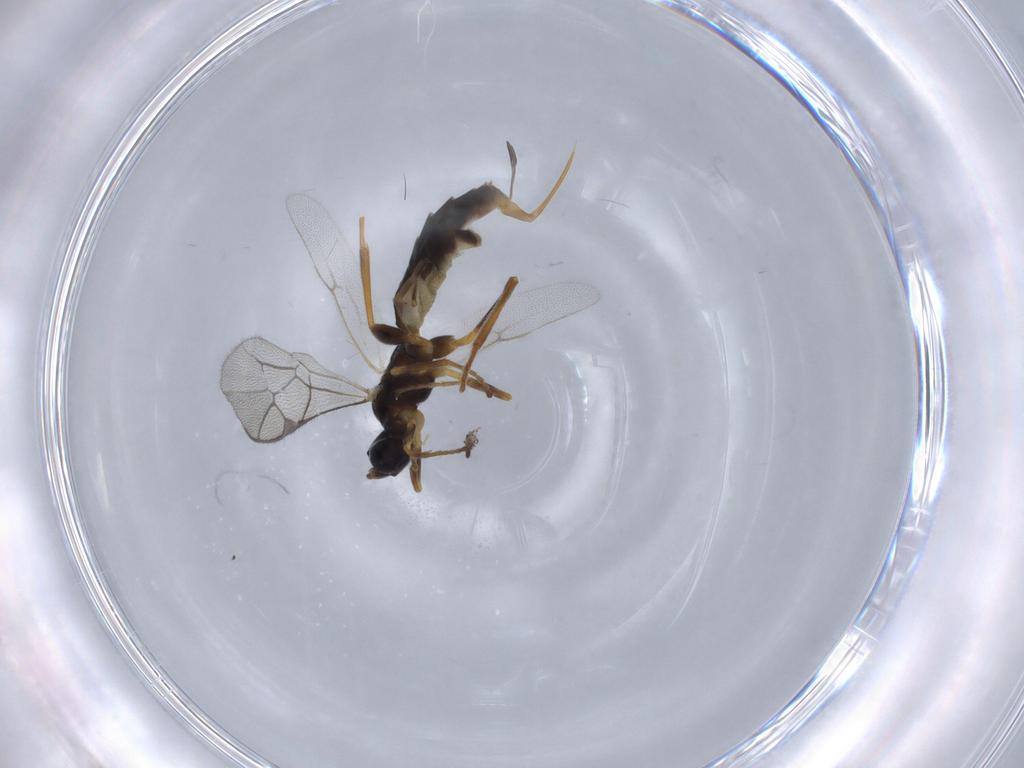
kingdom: Animalia
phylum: Arthropoda
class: Insecta
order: Hymenoptera
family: Ichneumonidae
